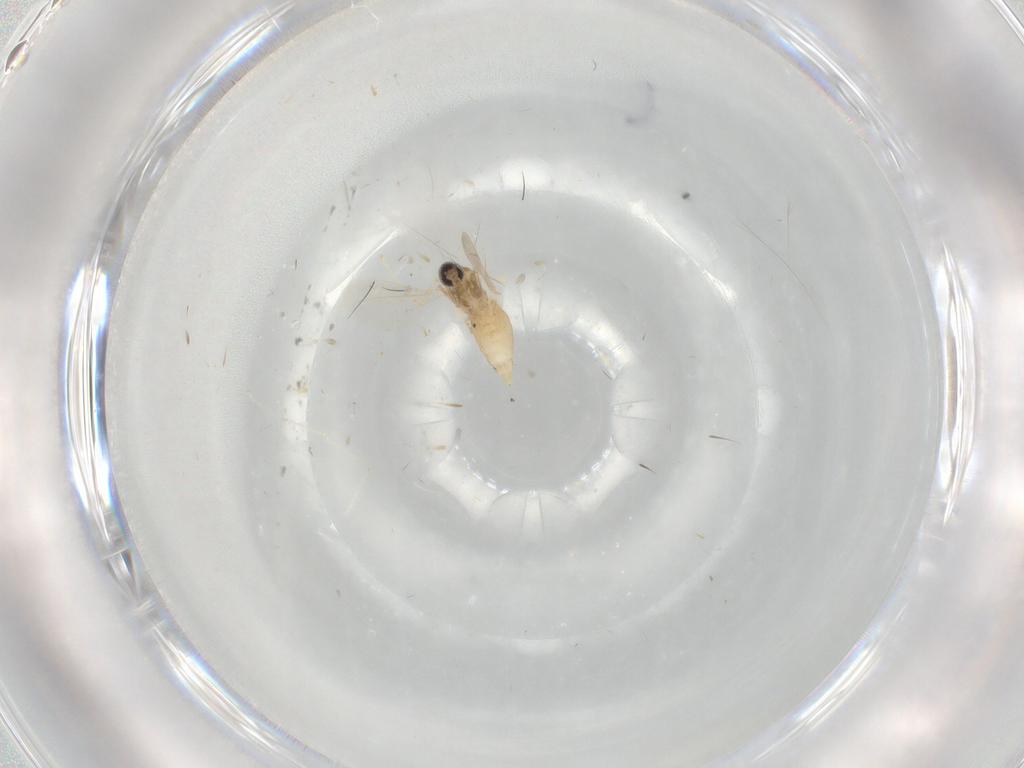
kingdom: Animalia
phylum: Arthropoda
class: Insecta
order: Diptera
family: Cecidomyiidae
